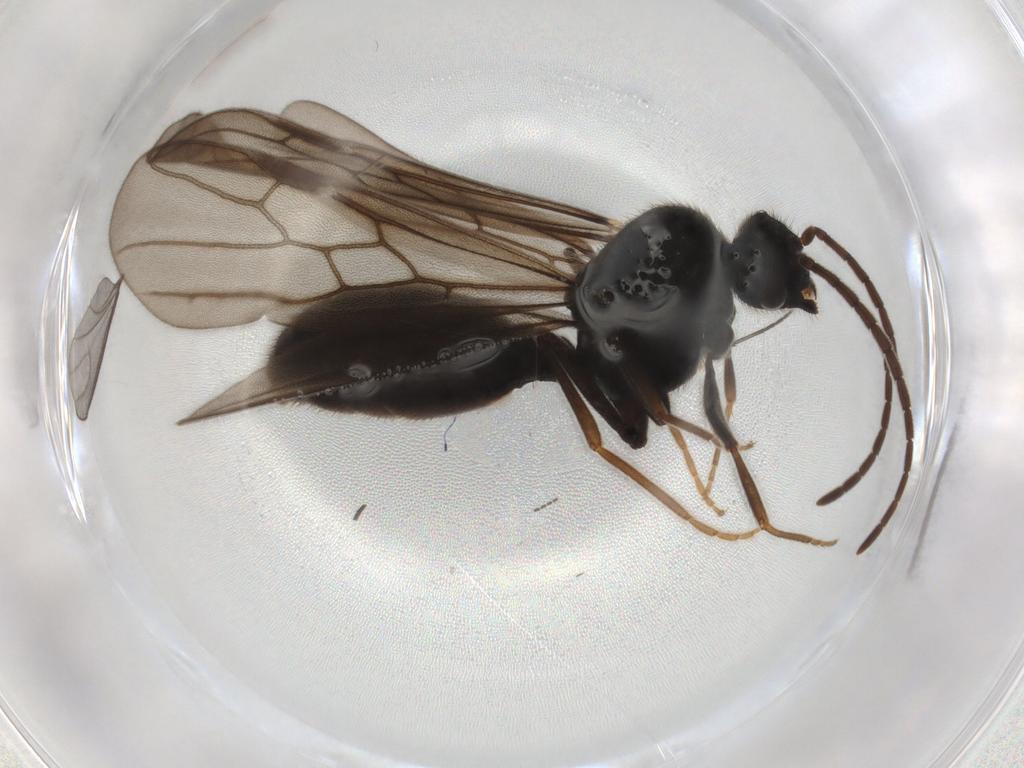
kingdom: Animalia
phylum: Arthropoda
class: Insecta
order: Hymenoptera
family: Formicidae
